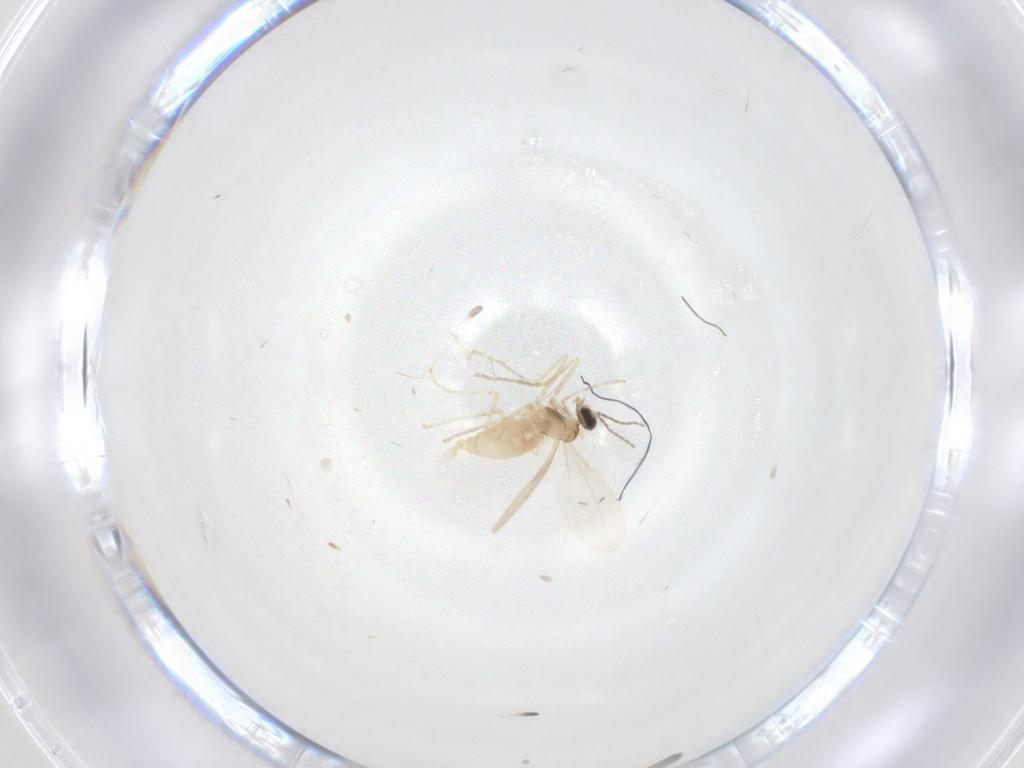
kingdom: Animalia
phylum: Arthropoda
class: Insecta
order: Diptera
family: Cecidomyiidae
